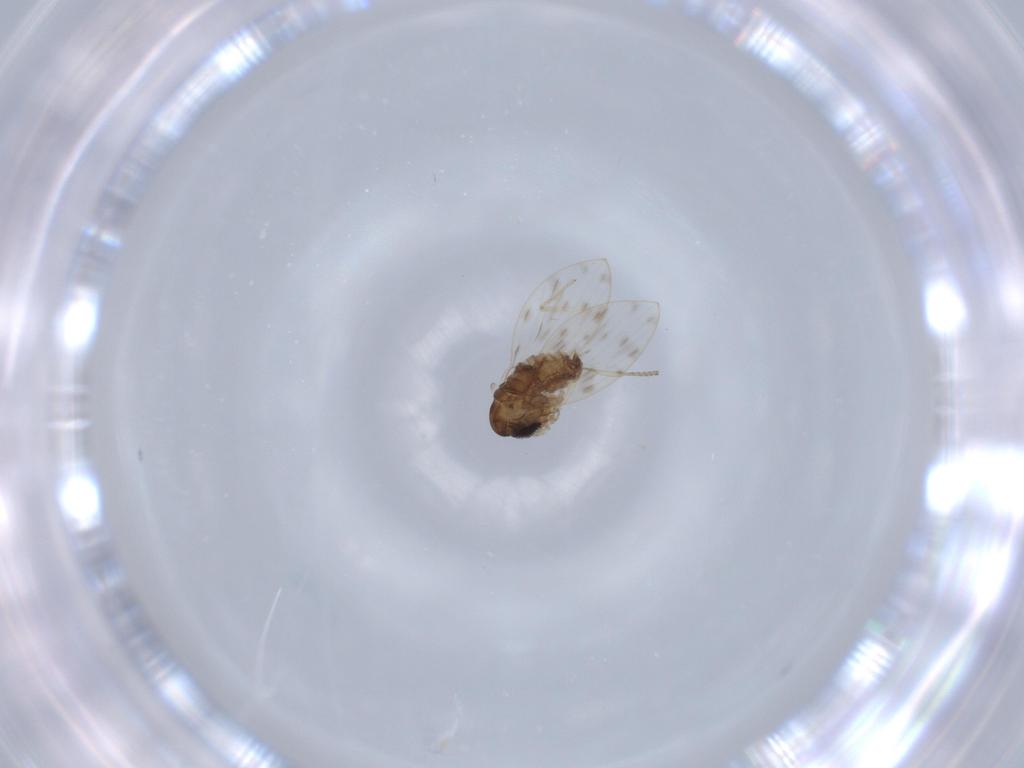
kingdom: Animalia
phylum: Arthropoda
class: Insecta
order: Diptera
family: Psychodidae
